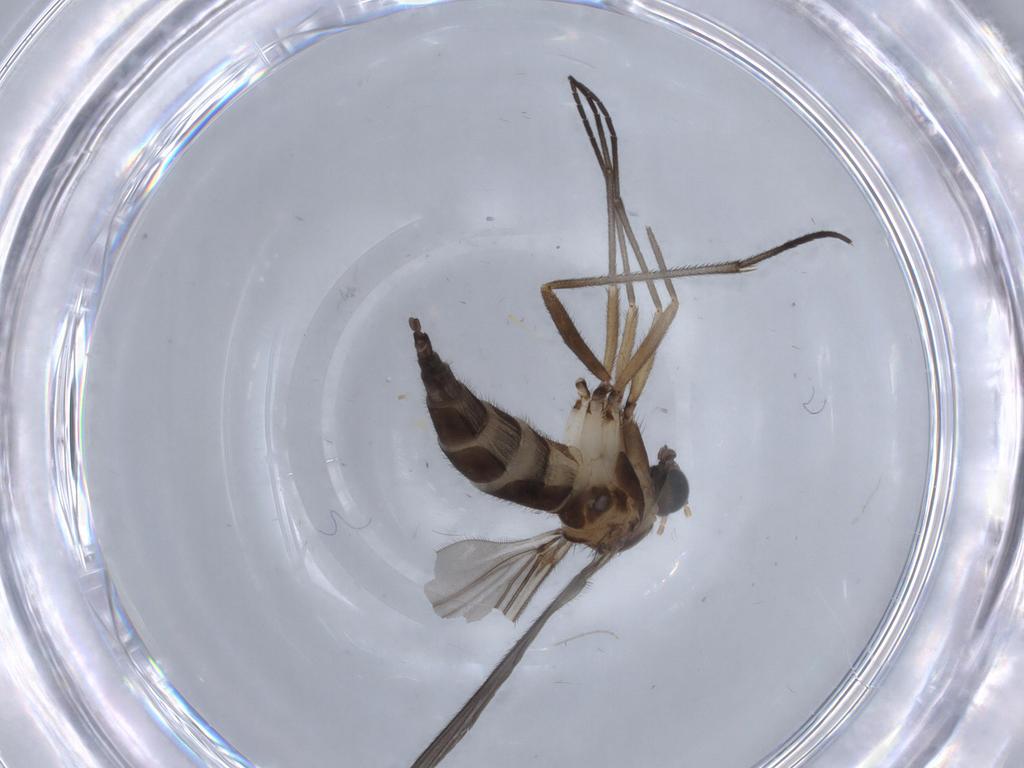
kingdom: Animalia
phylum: Arthropoda
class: Insecta
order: Diptera
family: Sciaridae
